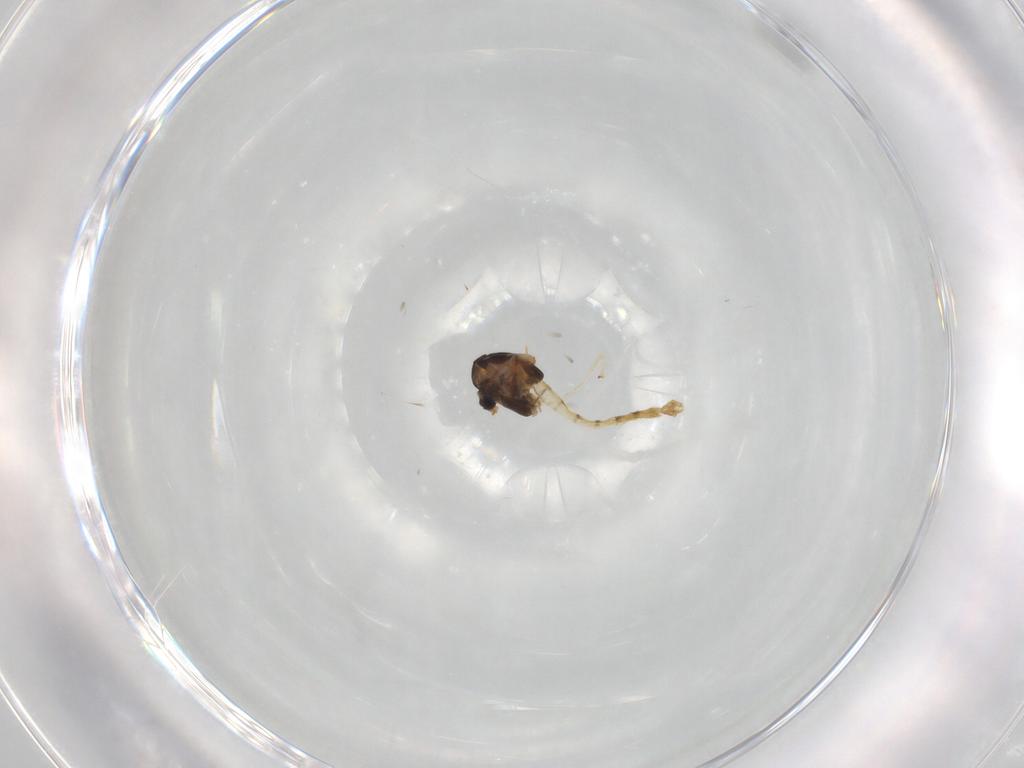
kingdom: Animalia
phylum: Arthropoda
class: Insecta
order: Diptera
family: Chironomidae
